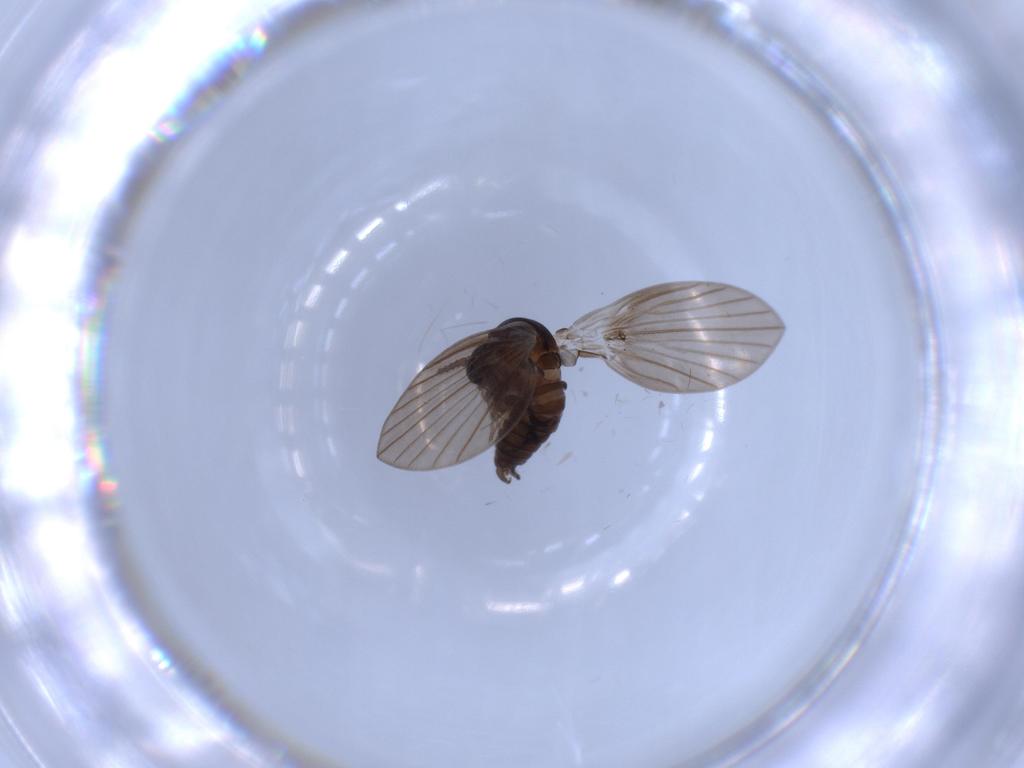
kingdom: Animalia
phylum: Arthropoda
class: Insecta
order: Diptera
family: Psychodidae
